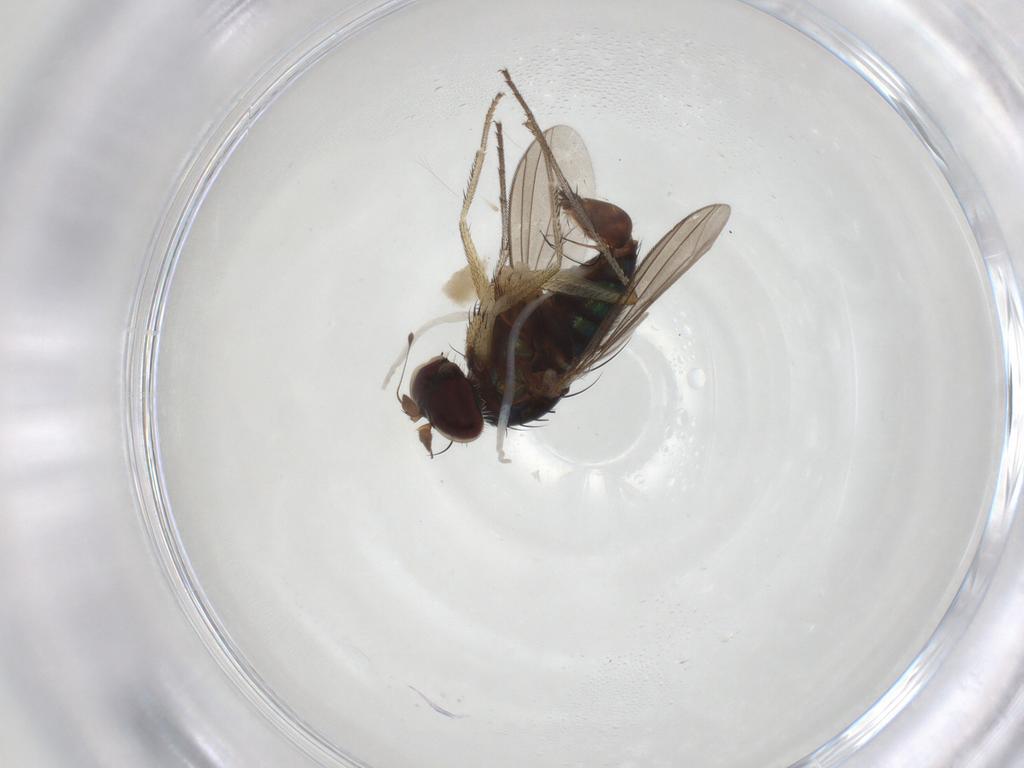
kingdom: Animalia
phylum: Arthropoda
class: Insecta
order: Diptera
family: Dolichopodidae
